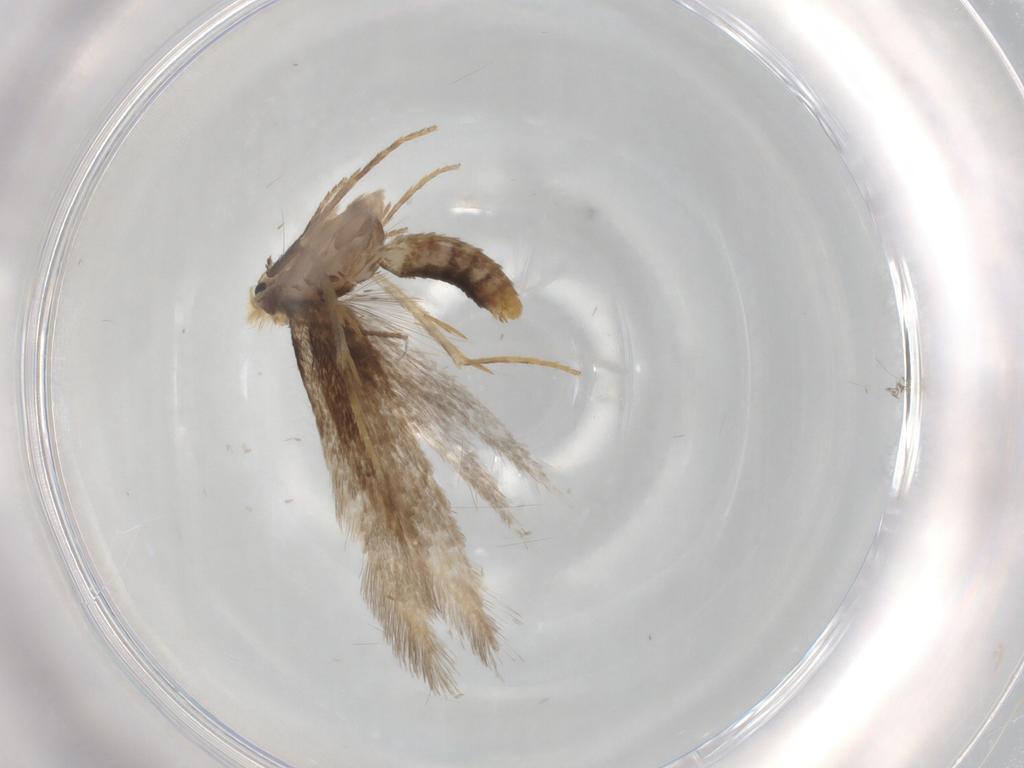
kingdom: Animalia
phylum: Arthropoda
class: Insecta
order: Lepidoptera
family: Nepticulidae
